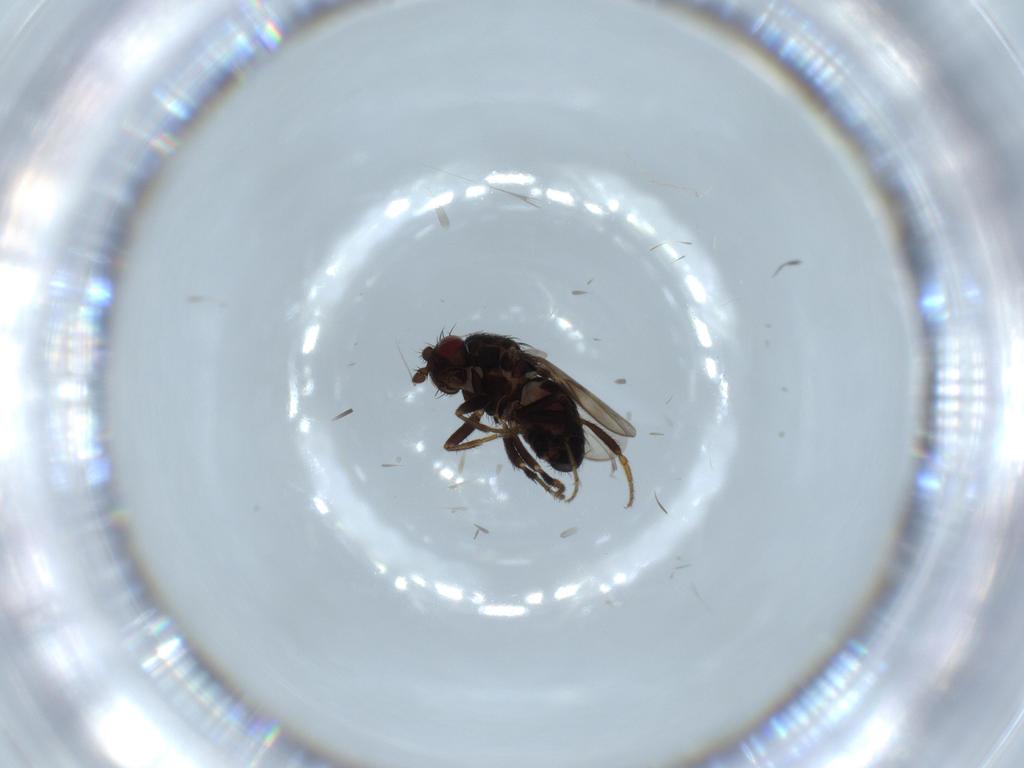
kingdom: Animalia
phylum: Arthropoda
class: Insecta
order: Diptera
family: Sphaeroceridae
